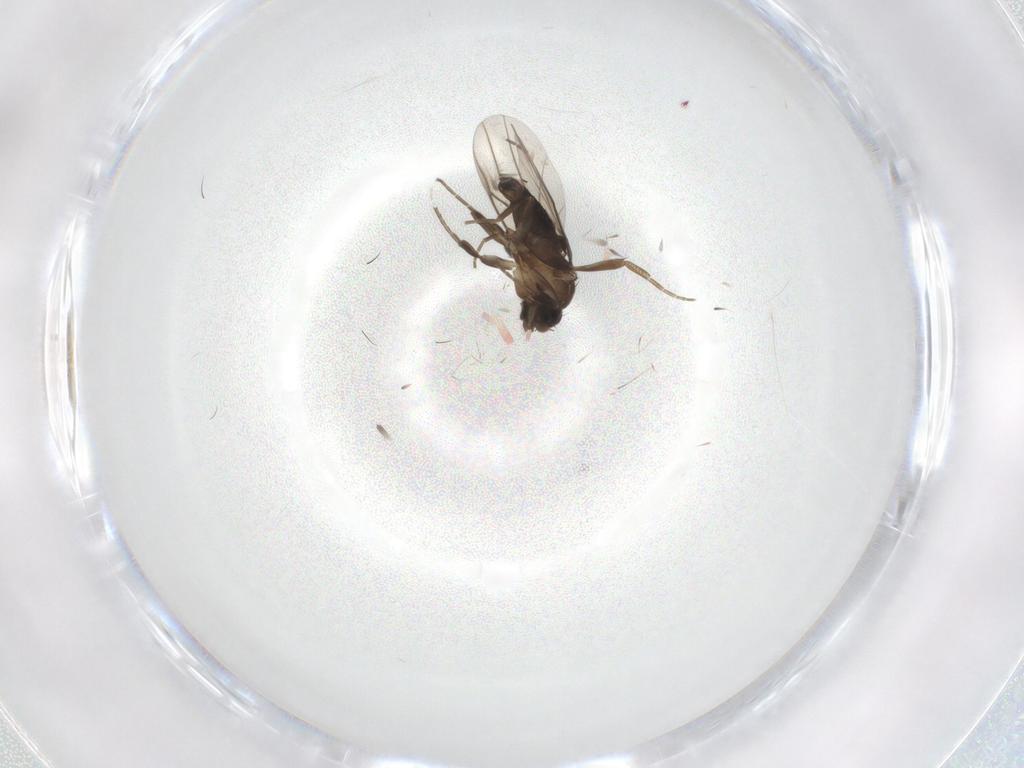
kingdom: Animalia
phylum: Arthropoda
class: Insecta
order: Diptera
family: Phoridae
